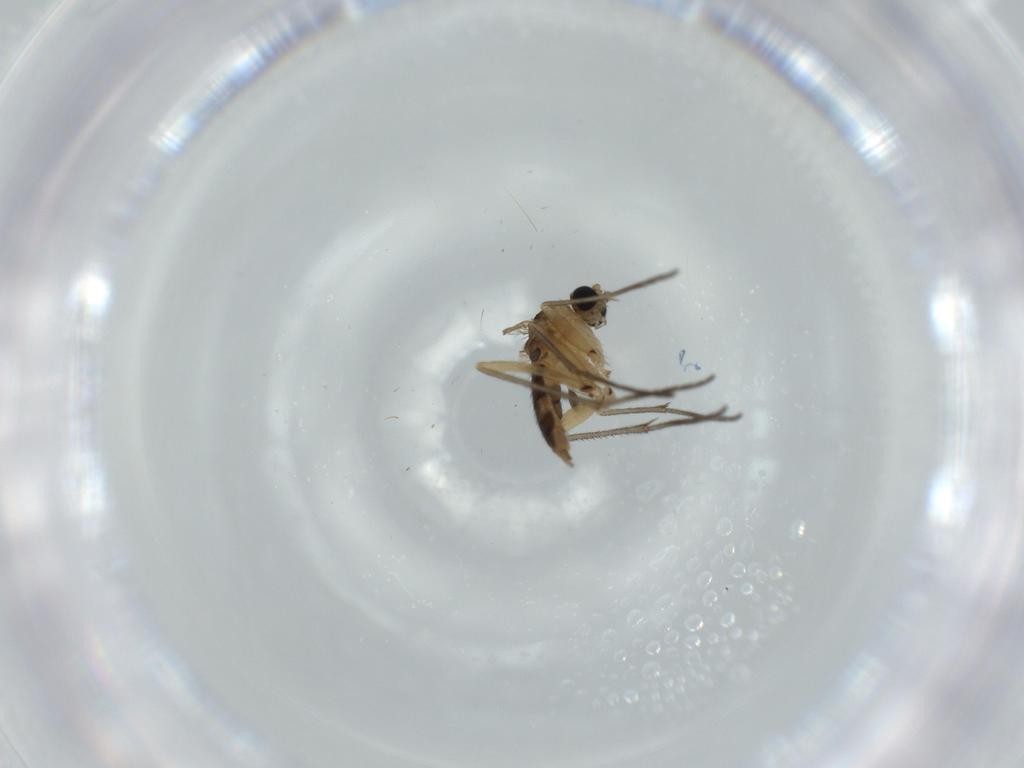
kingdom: Animalia
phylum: Arthropoda
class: Insecta
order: Diptera
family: Sciaridae
